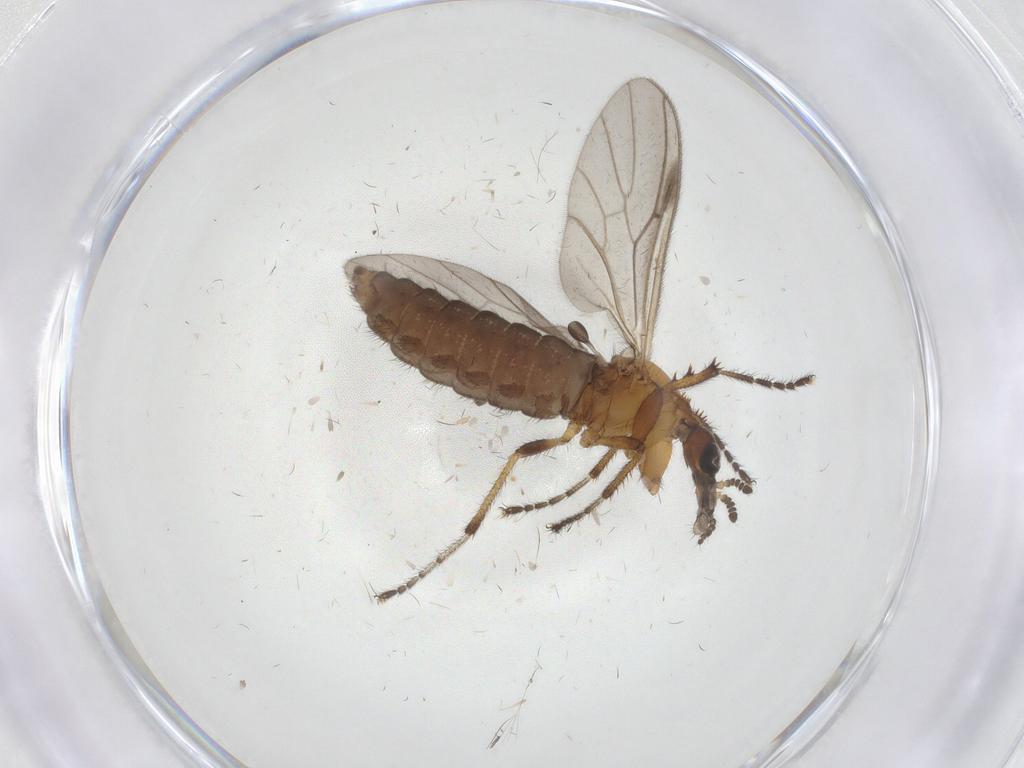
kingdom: Animalia
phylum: Arthropoda
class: Insecta
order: Diptera
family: Bibionidae
